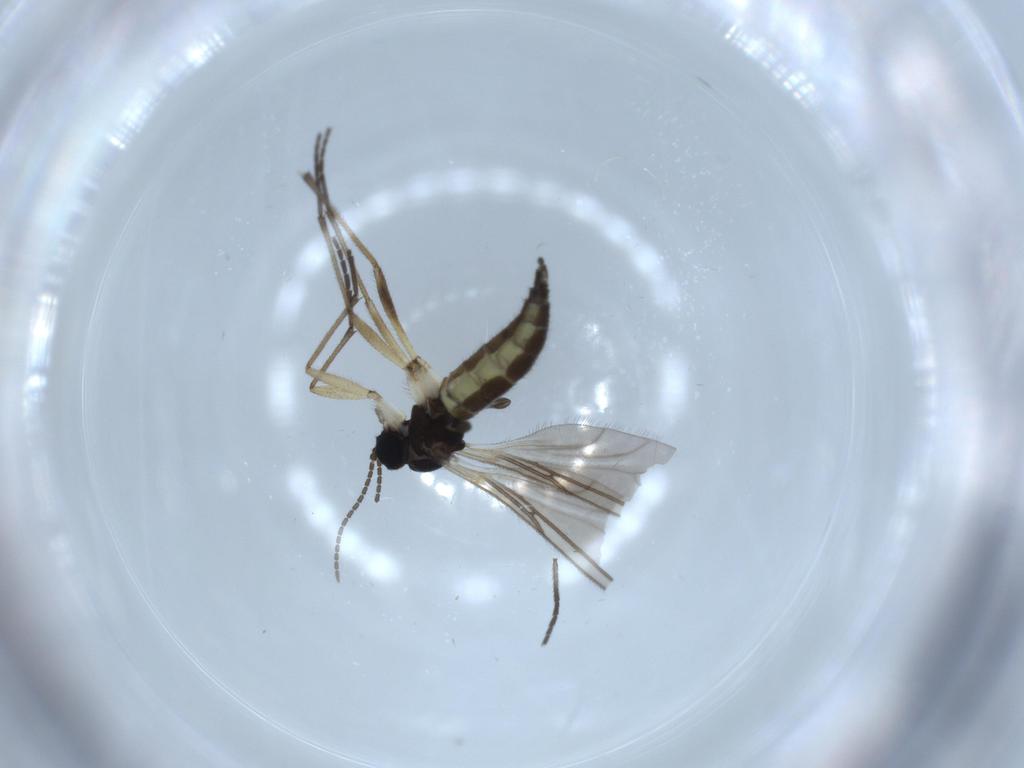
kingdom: Animalia
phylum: Arthropoda
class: Insecta
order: Diptera
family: Sciaridae
